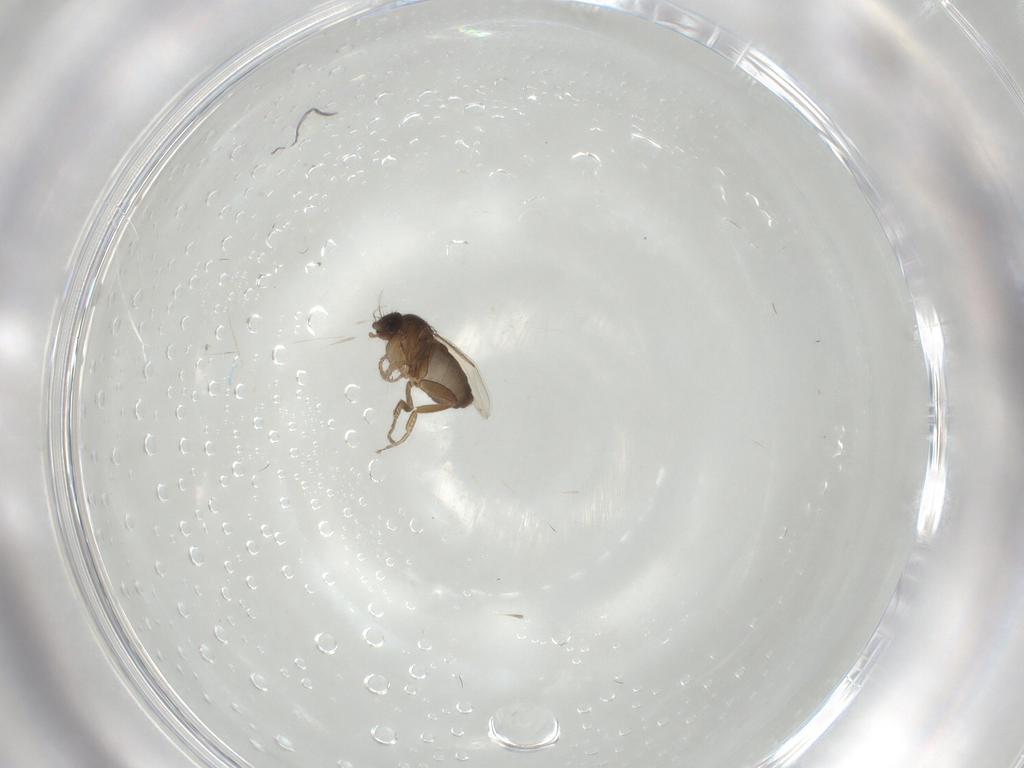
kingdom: Animalia
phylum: Arthropoda
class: Insecta
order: Diptera
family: Phoridae
